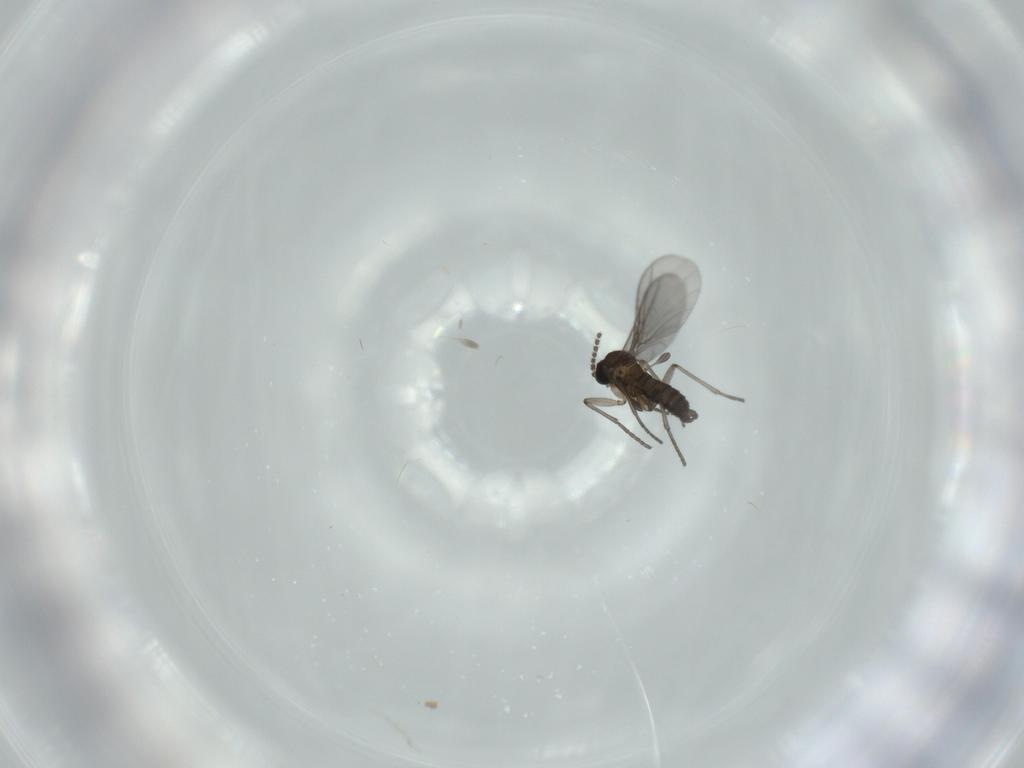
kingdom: Animalia
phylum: Arthropoda
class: Insecta
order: Diptera
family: Sciaridae
